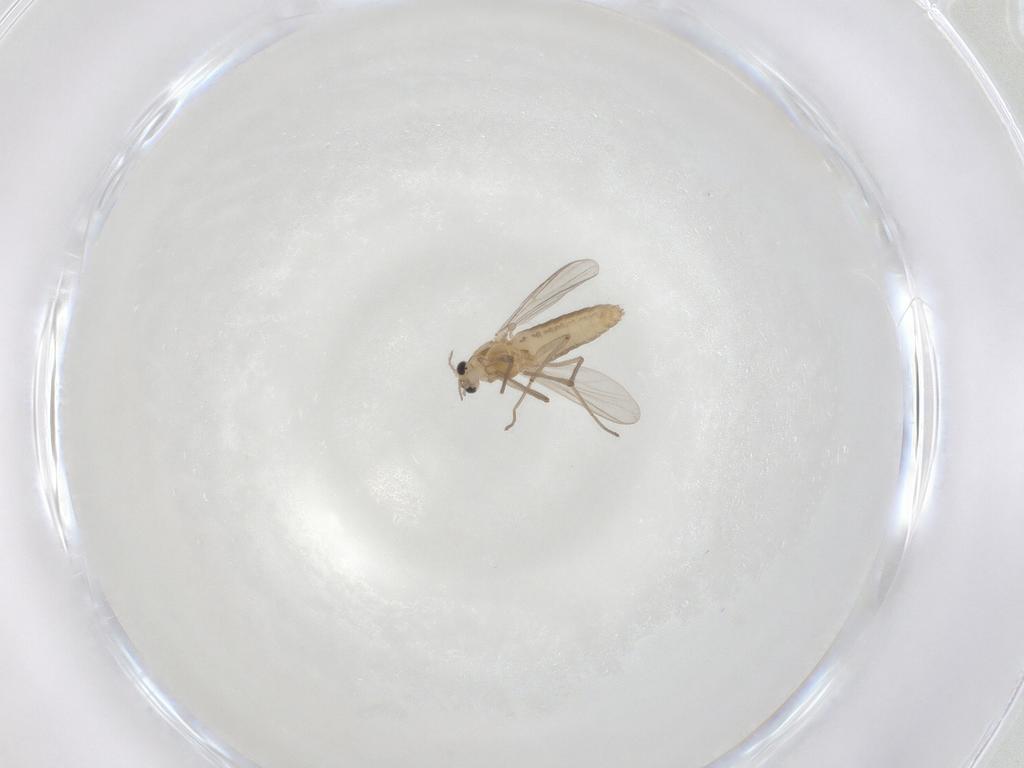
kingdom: Animalia
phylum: Arthropoda
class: Insecta
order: Diptera
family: Chironomidae
